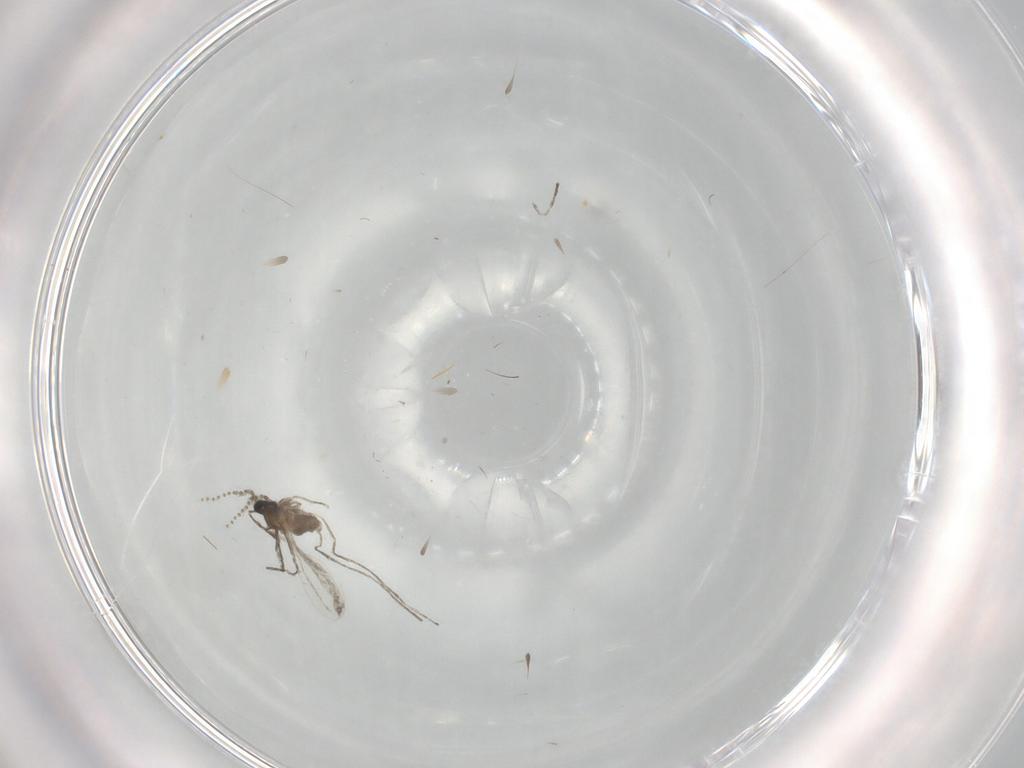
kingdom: Animalia
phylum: Arthropoda
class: Insecta
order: Diptera
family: Cecidomyiidae
